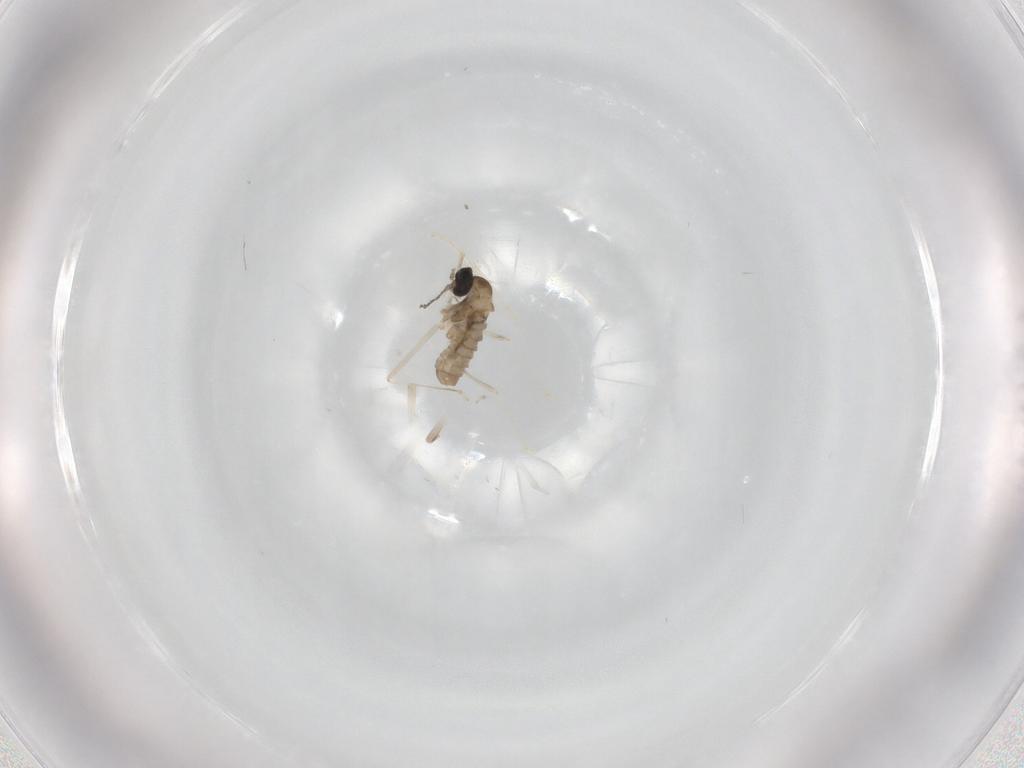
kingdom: Animalia
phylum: Arthropoda
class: Insecta
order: Diptera
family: Cecidomyiidae
